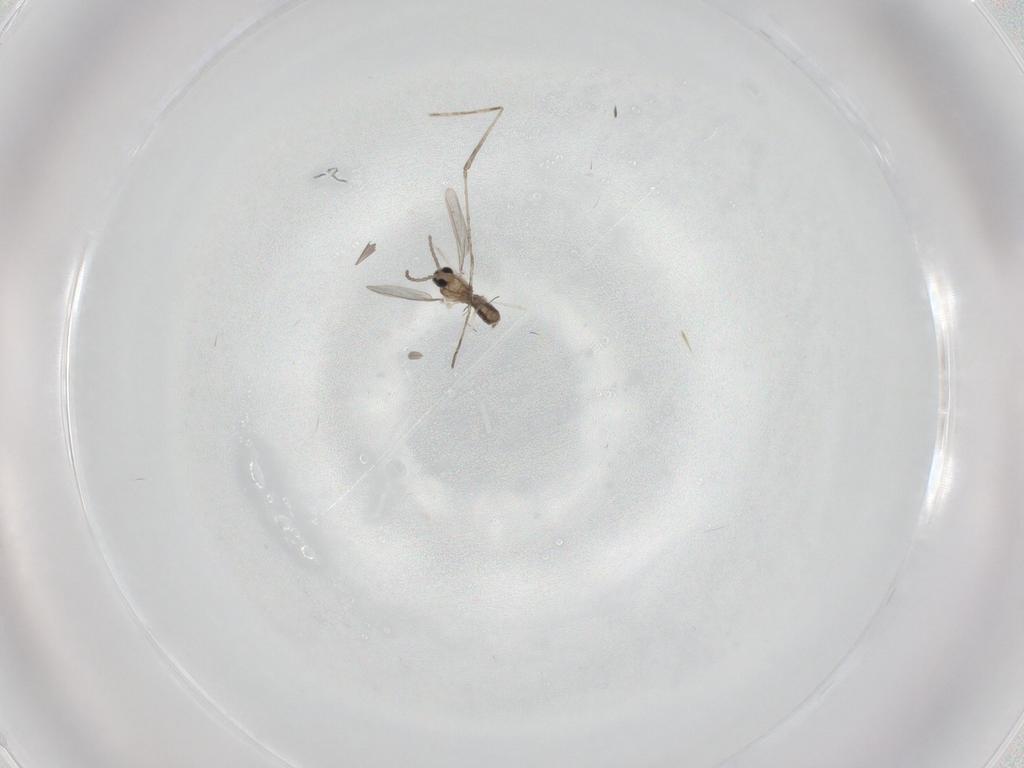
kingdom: Animalia
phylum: Arthropoda
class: Insecta
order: Diptera
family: Cecidomyiidae
